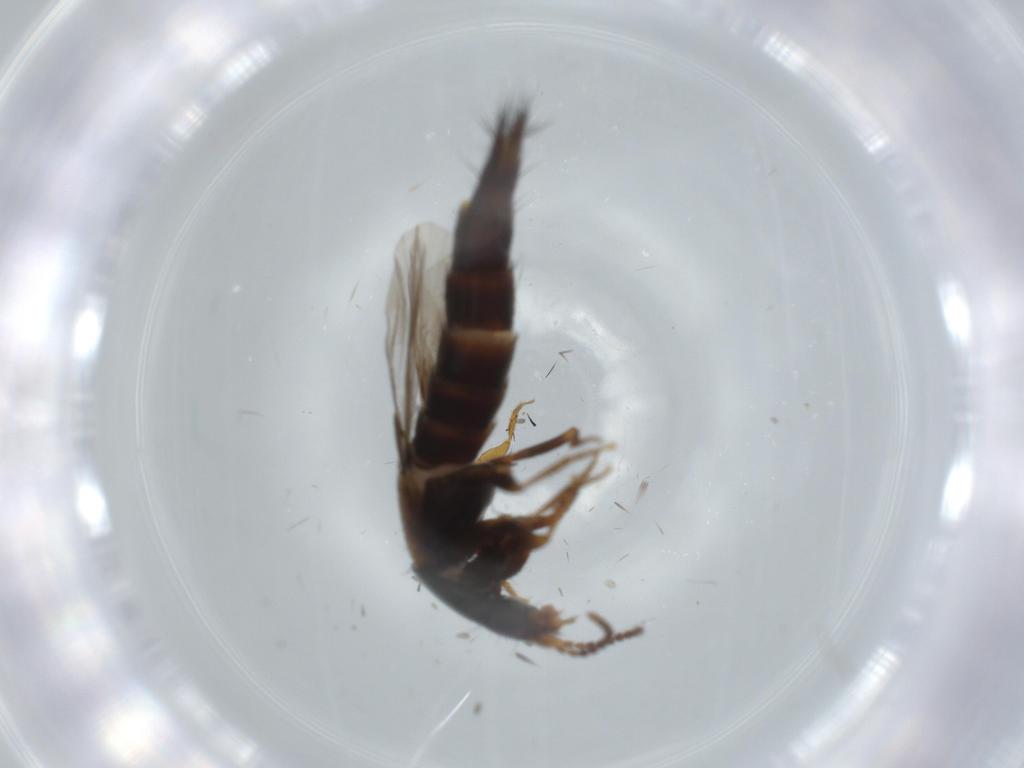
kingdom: Animalia
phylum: Arthropoda
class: Insecta
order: Coleoptera
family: Staphylinidae
